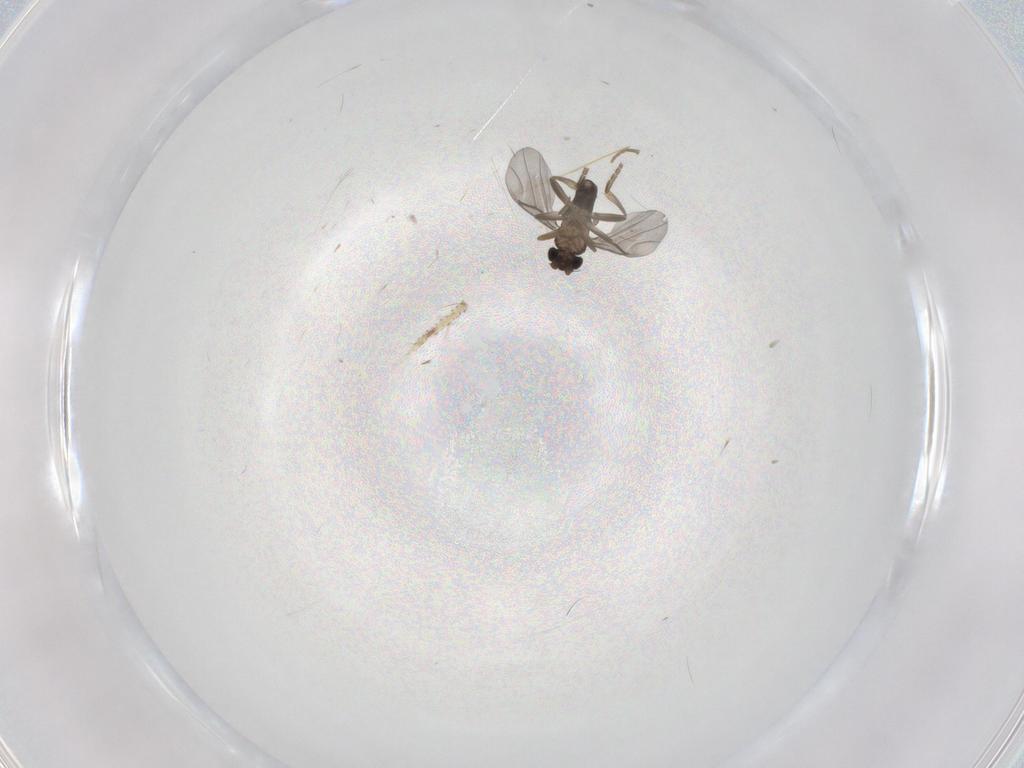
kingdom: Animalia
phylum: Arthropoda
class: Insecta
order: Diptera
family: Phoridae
